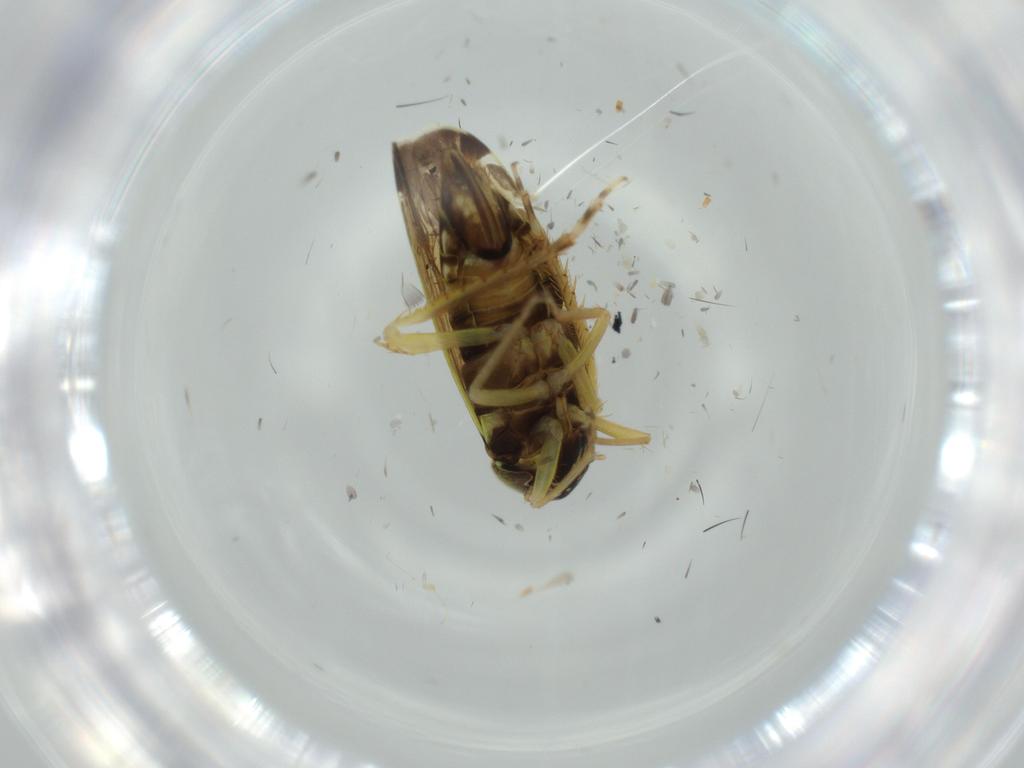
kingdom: Animalia
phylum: Arthropoda
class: Insecta
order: Hemiptera
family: Cicadellidae
